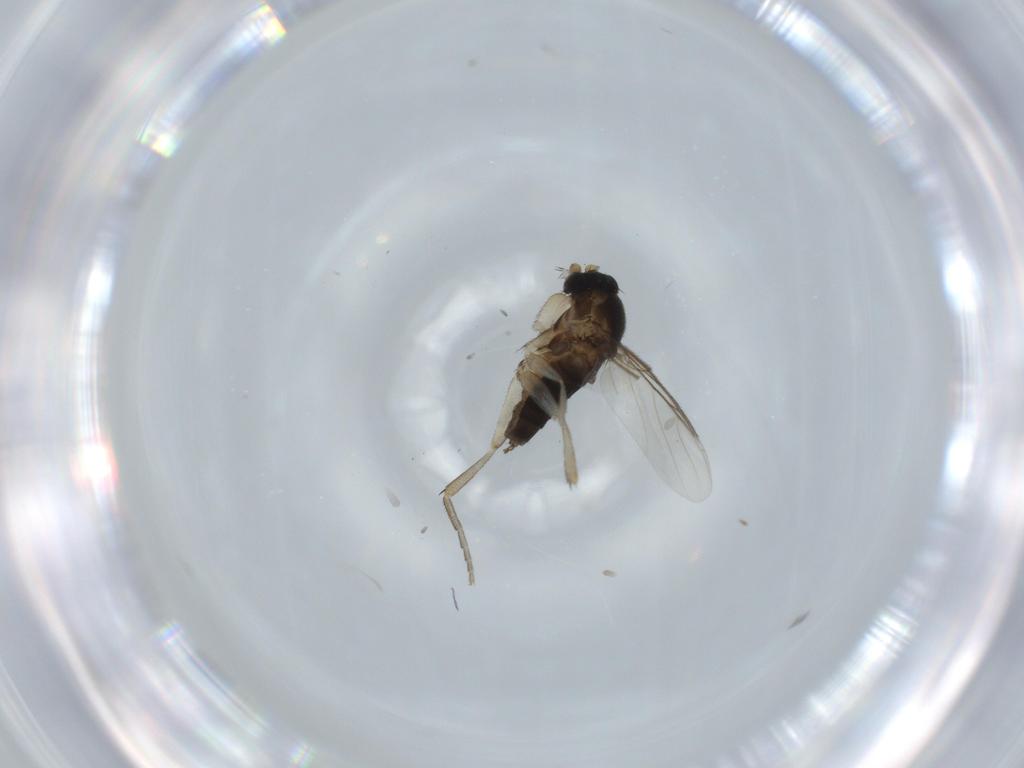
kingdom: Animalia
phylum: Arthropoda
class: Insecta
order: Diptera
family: Phoridae
